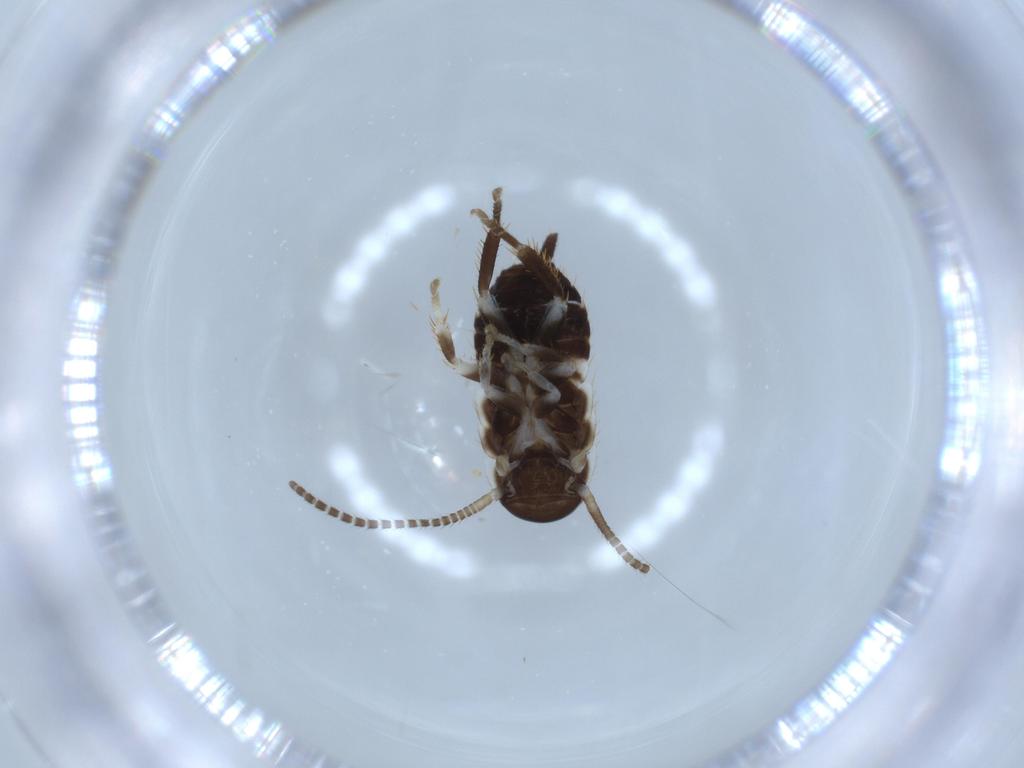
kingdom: Animalia
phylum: Arthropoda
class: Insecta
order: Blattodea
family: Ectobiidae
